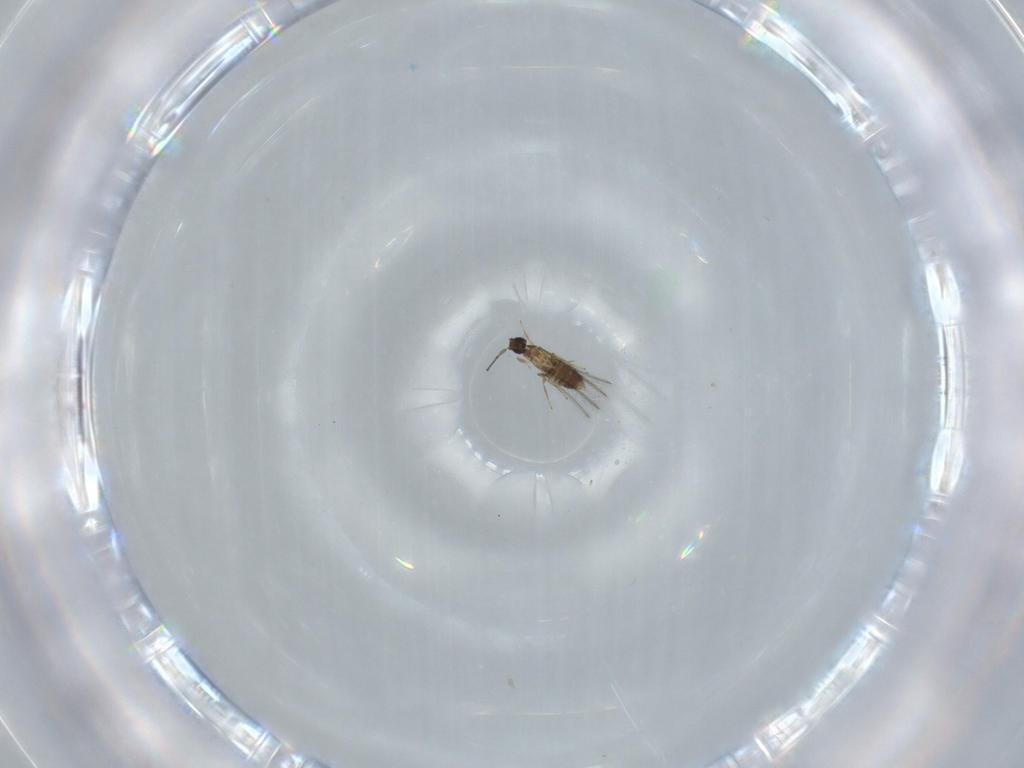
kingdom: Animalia
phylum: Arthropoda
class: Insecta
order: Hymenoptera
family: Mymaridae
